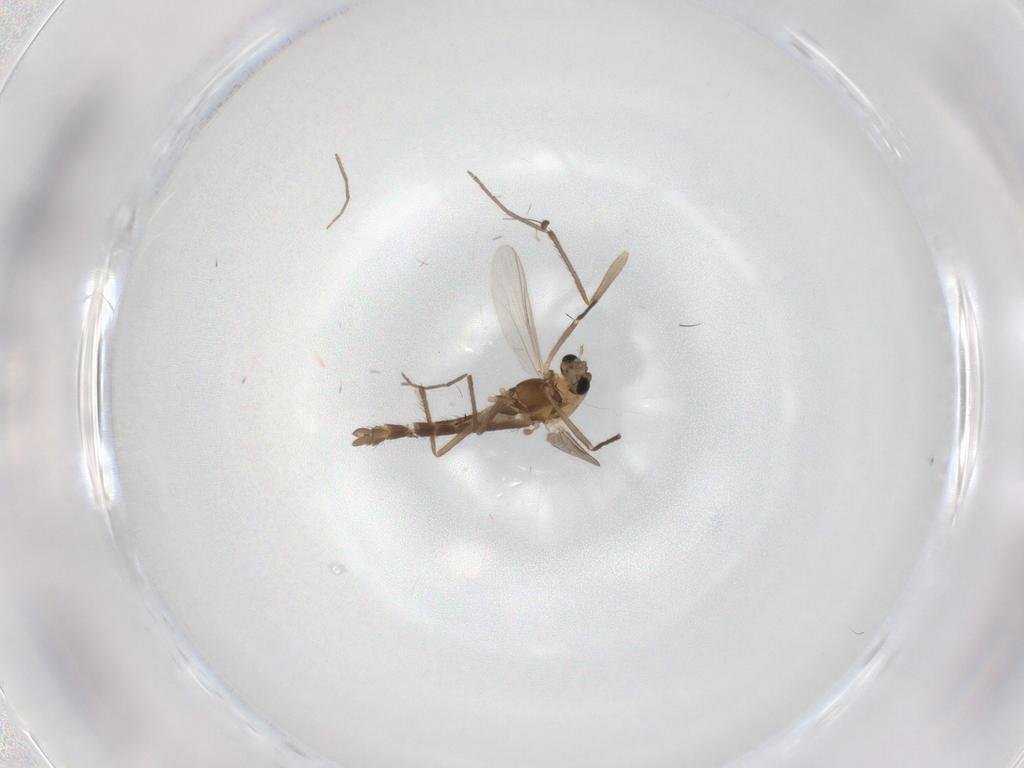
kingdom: Animalia
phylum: Arthropoda
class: Insecta
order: Diptera
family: Chironomidae
